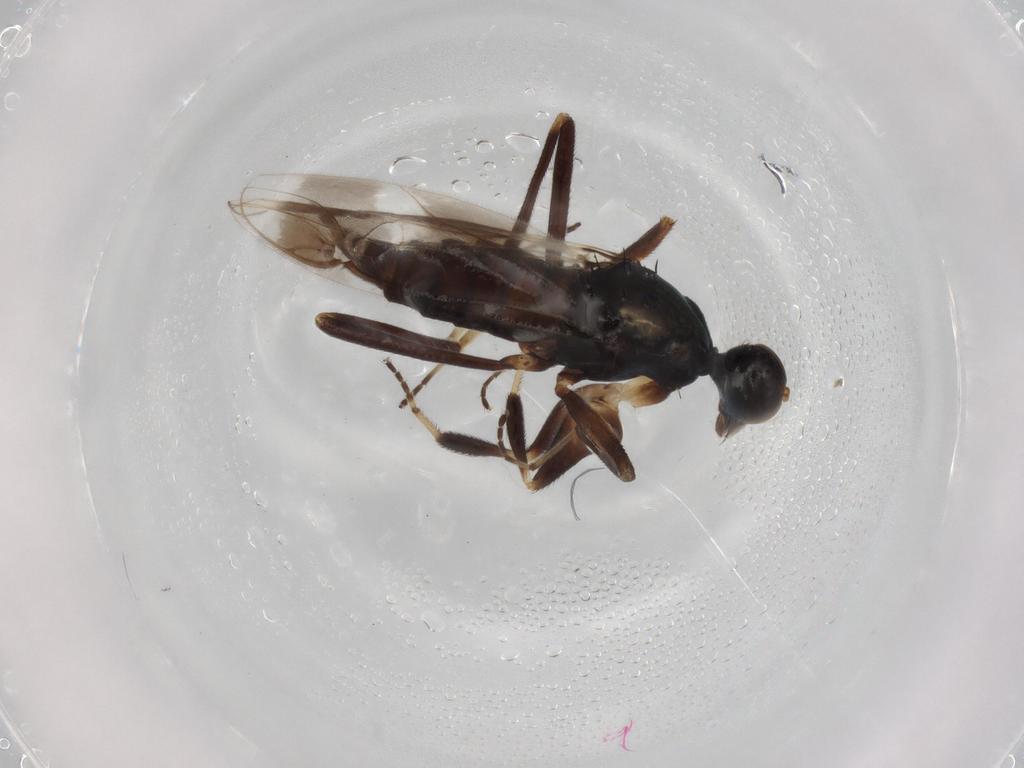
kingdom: Animalia
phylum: Arthropoda
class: Insecta
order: Diptera
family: Hybotidae
